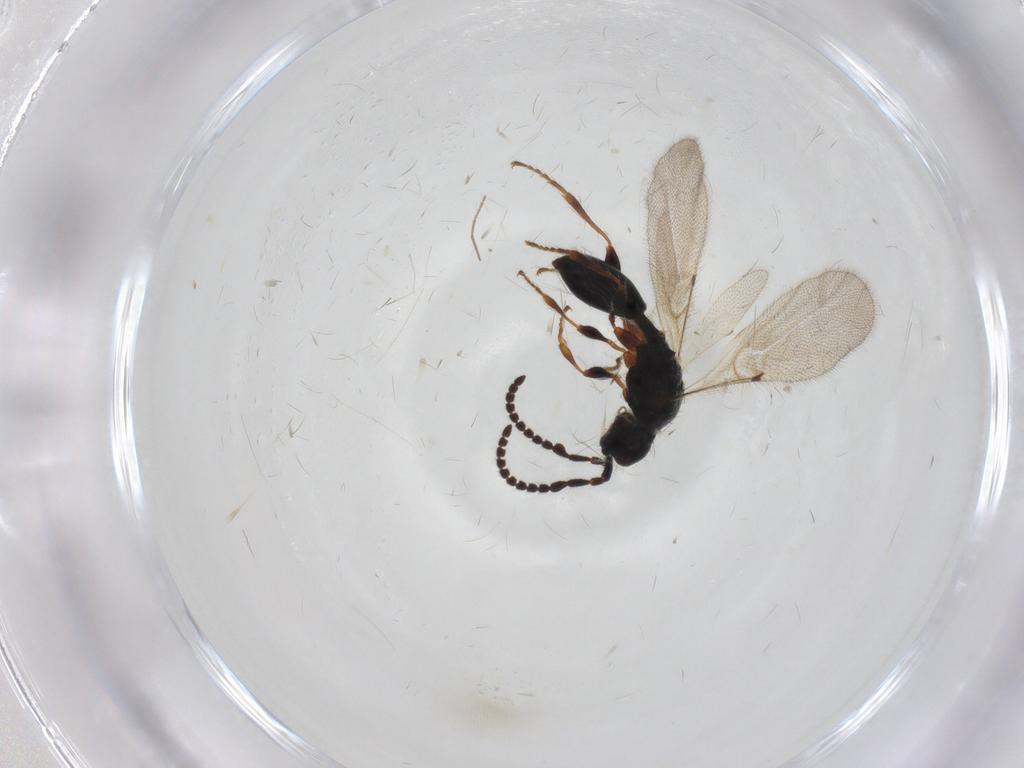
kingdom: Animalia
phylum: Arthropoda
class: Insecta
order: Hymenoptera
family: Diapriidae
